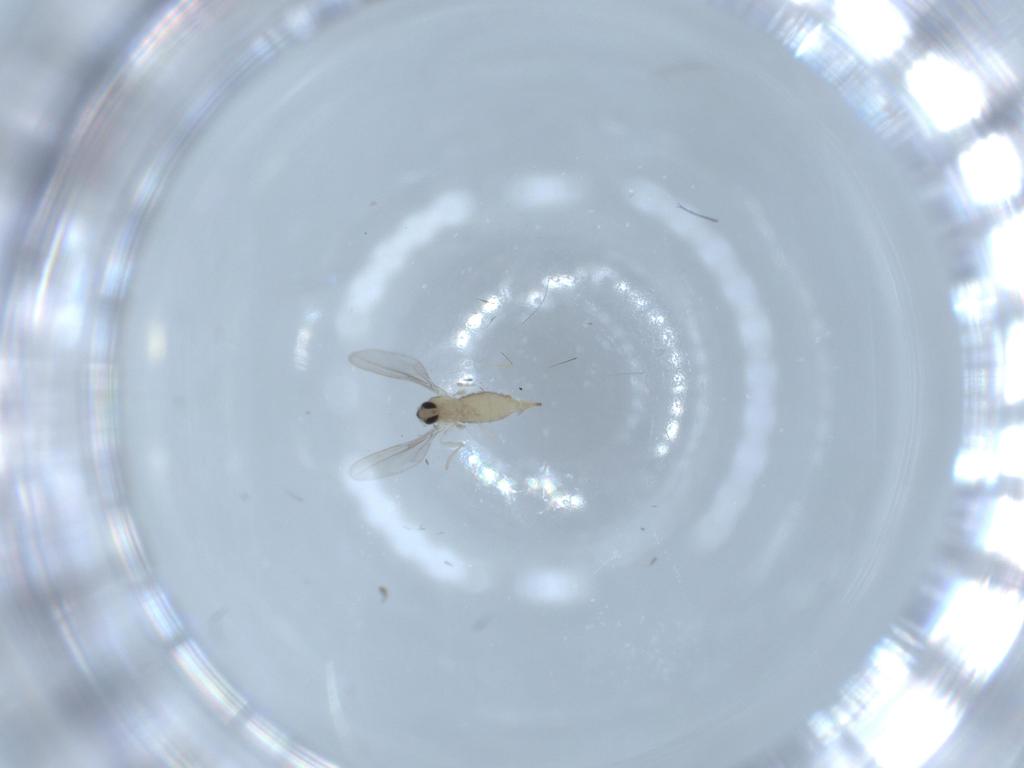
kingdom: Animalia
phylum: Arthropoda
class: Insecta
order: Diptera
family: Cecidomyiidae
